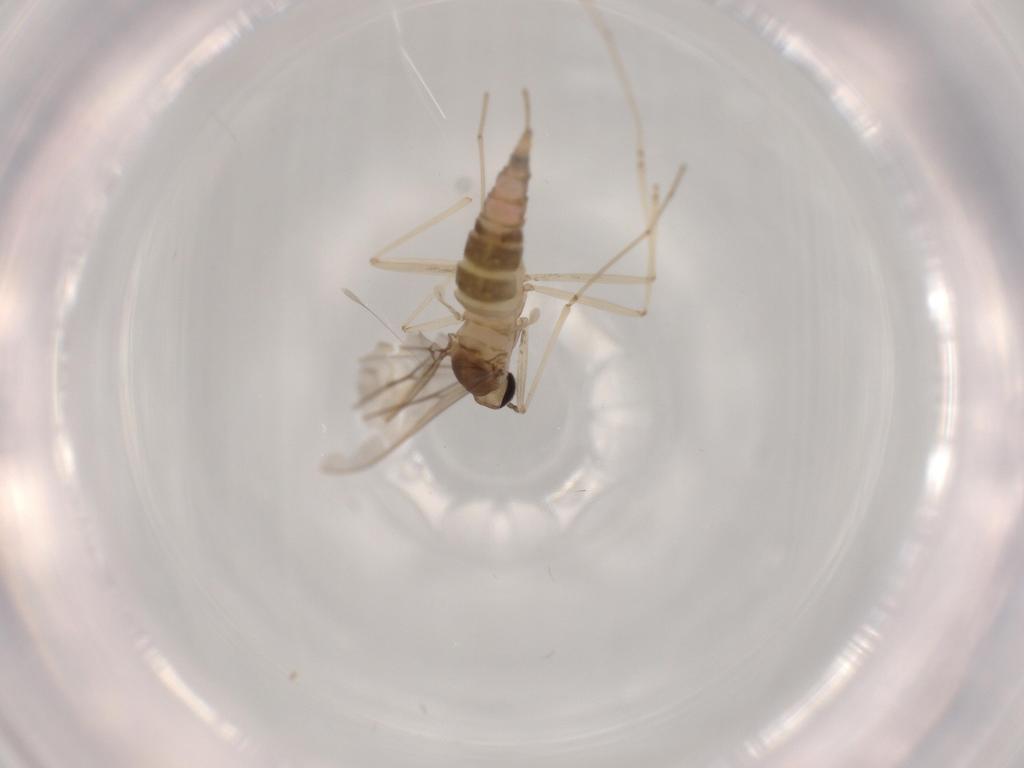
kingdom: Animalia
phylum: Arthropoda
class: Insecta
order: Diptera
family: Cecidomyiidae
